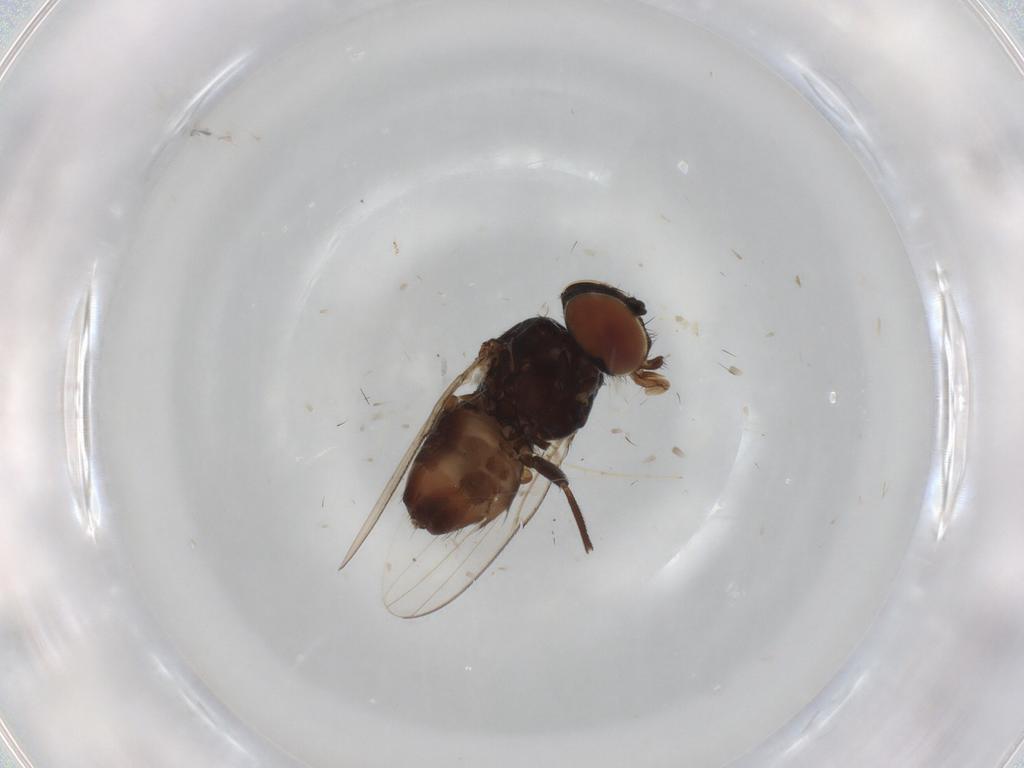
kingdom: Animalia
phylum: Arthropoda
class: Insecta
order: Diptera
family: Milichiidae
